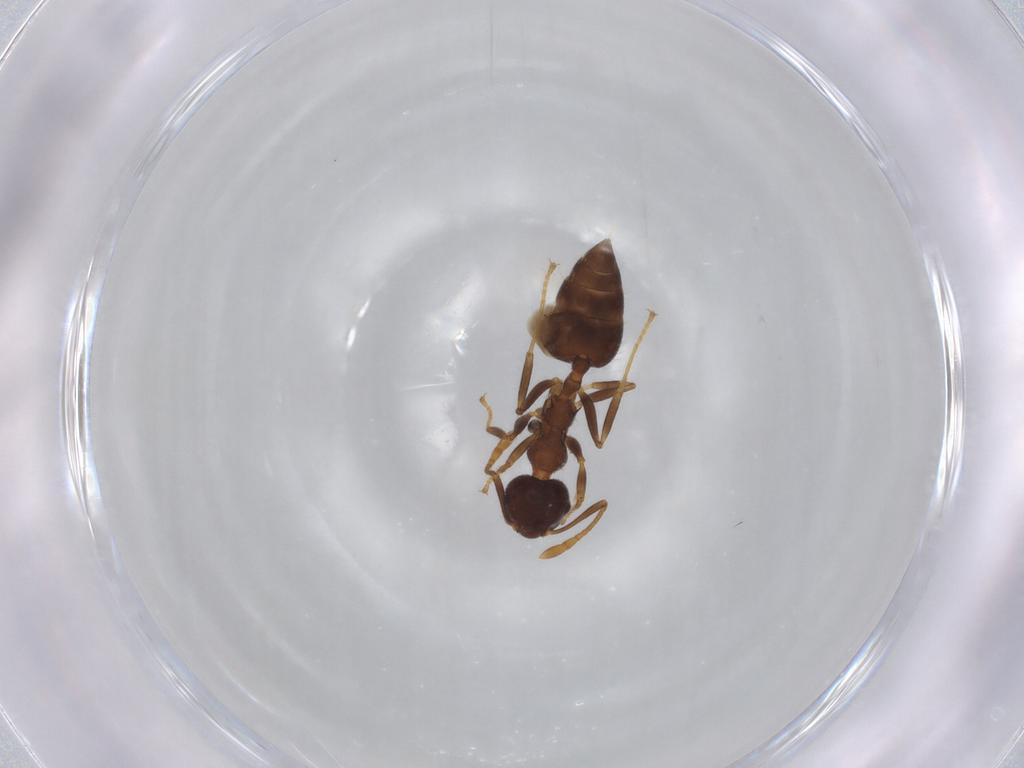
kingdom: Animalia
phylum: Arthropoda
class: Insecta
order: Hymenoptera
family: Formicidae
